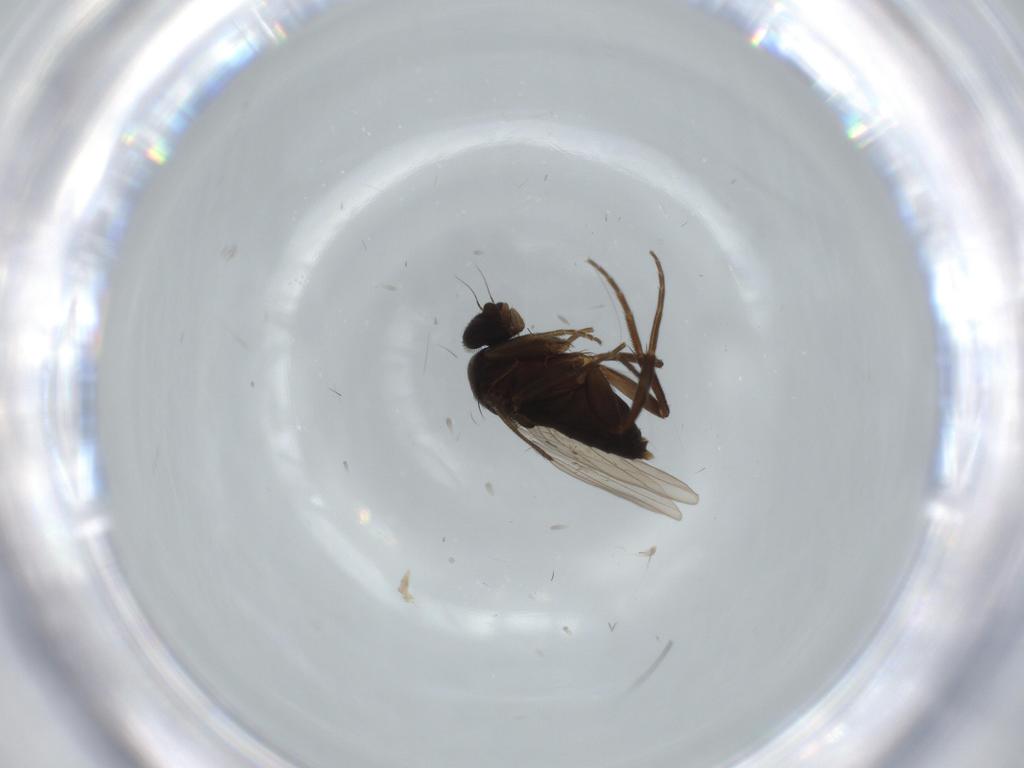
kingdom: Animalia
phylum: Arthropoda
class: Insecta
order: Diptera
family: Phoridae
